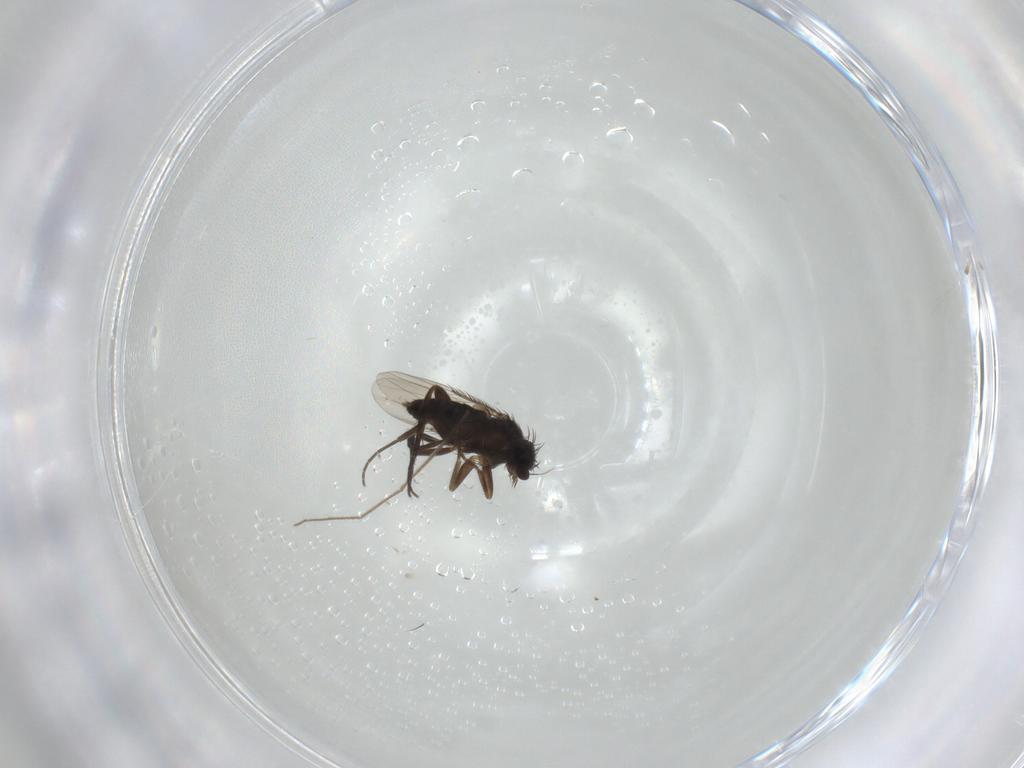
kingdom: Animalia
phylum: Arthropoda
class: Insecta
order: Diptera
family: Phoridae
